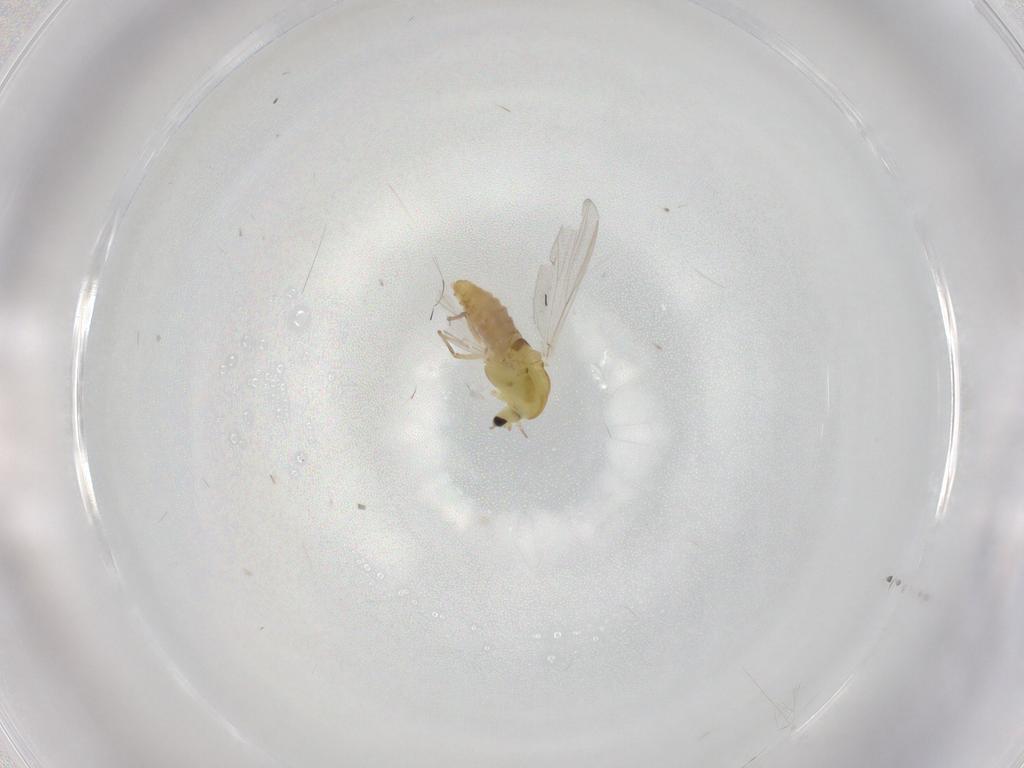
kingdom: Animalia
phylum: Arthropoda
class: Insecta
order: Diptera
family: Chironomidae
